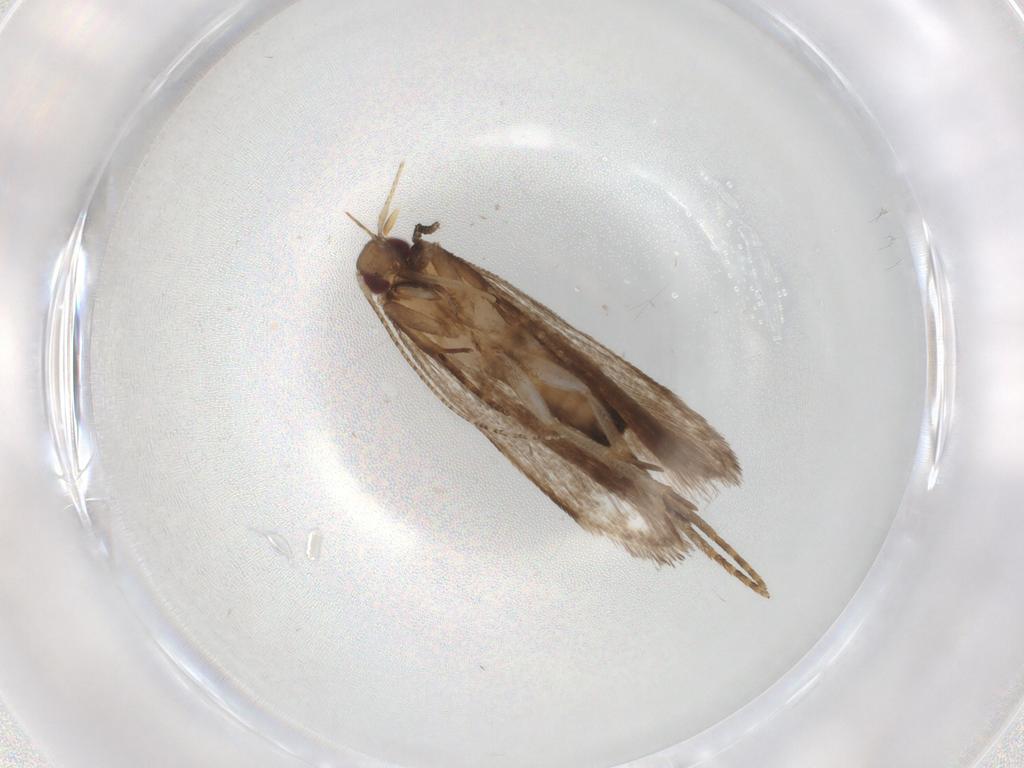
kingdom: Animalia
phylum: Arthropoda
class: Insecta
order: Lepidoptera
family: Gelechiidae
